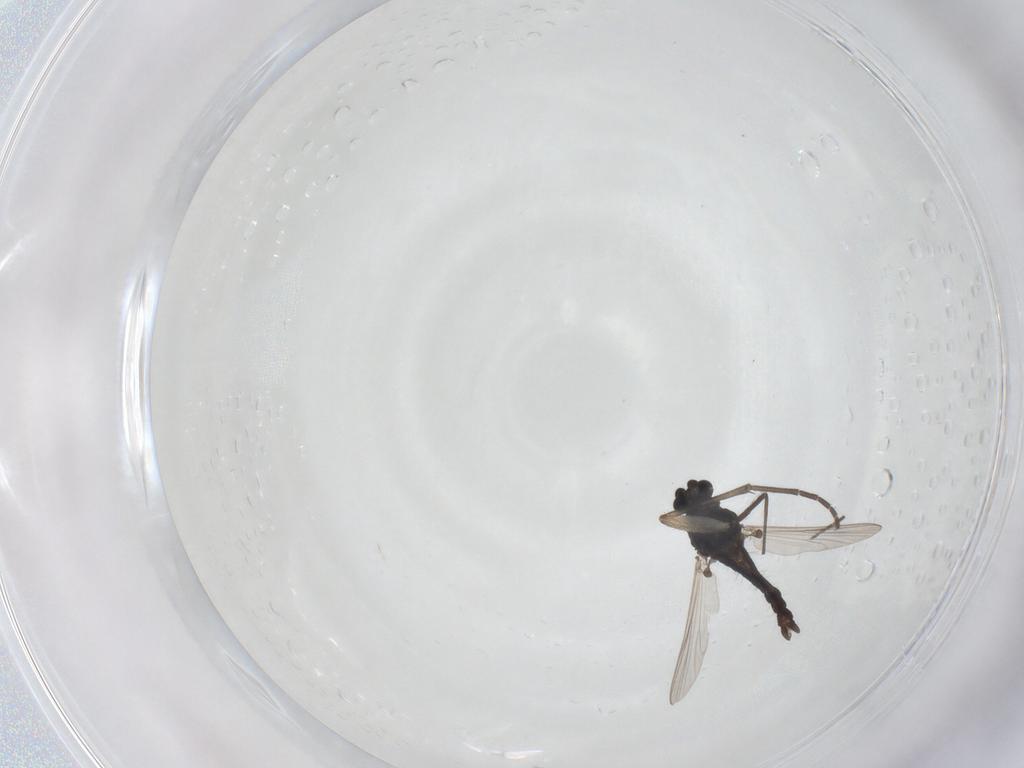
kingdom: Animalia
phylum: Arthropoda
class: Insecta
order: Diptera
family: Sciaridae
